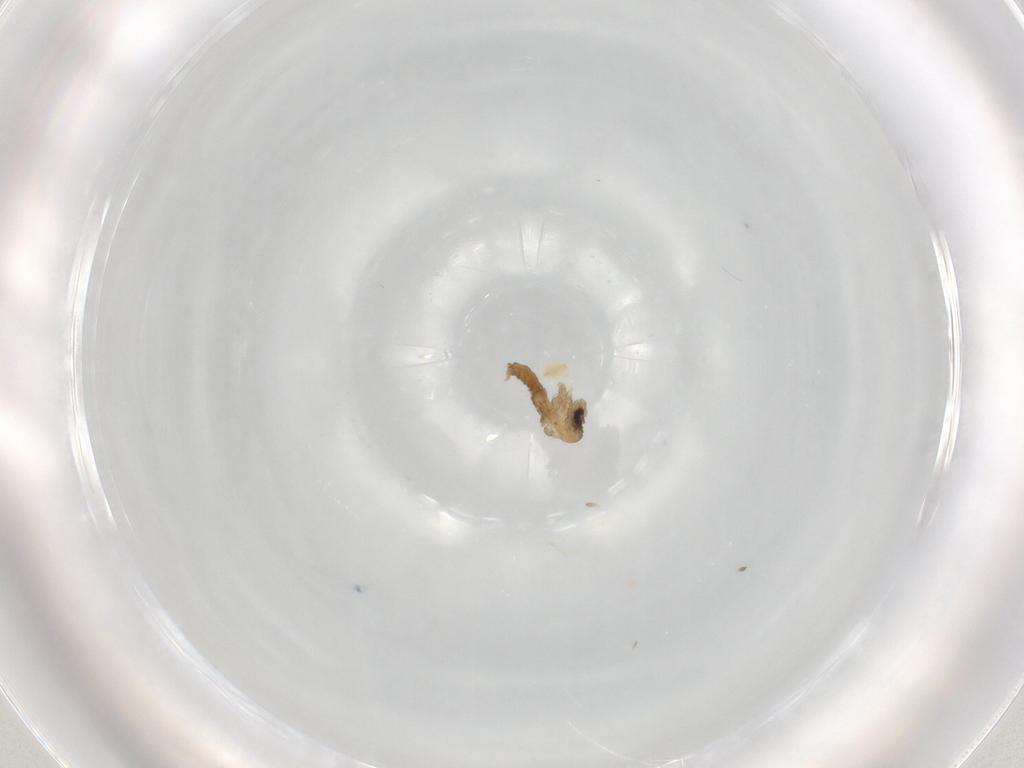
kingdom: Animalia
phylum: Arthropoda
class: Insecta
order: Diptera
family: Glossinidae
